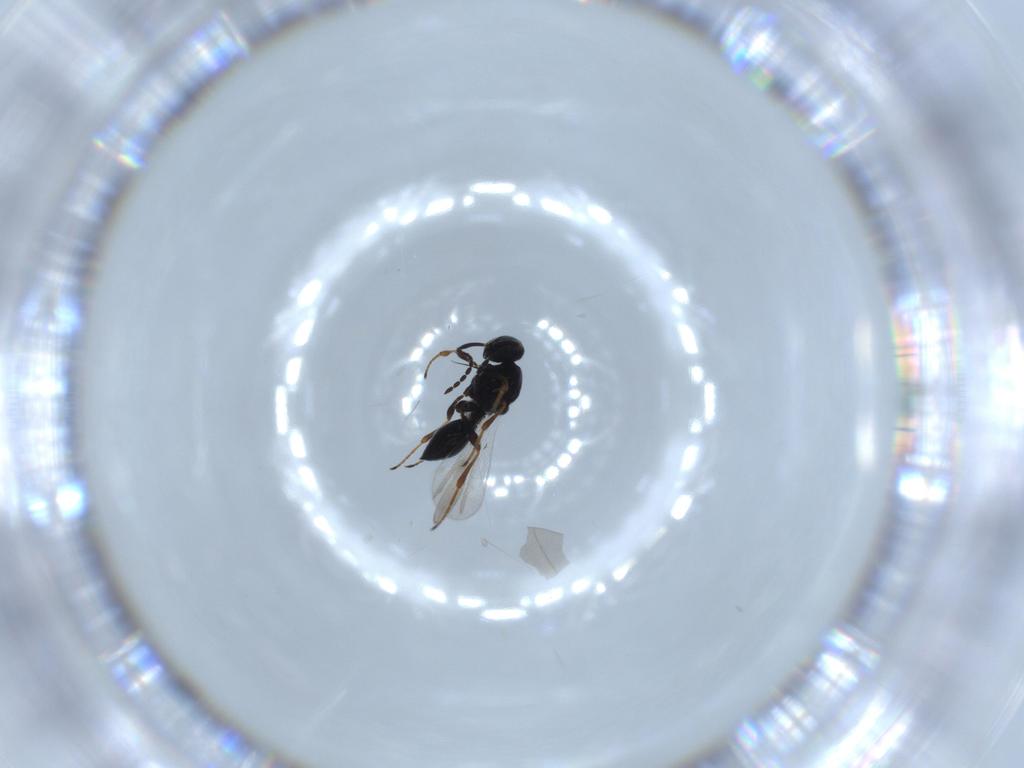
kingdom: Animalia
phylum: Arthropoda
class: Insecta
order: Hymenoptera
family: Platygastridae
